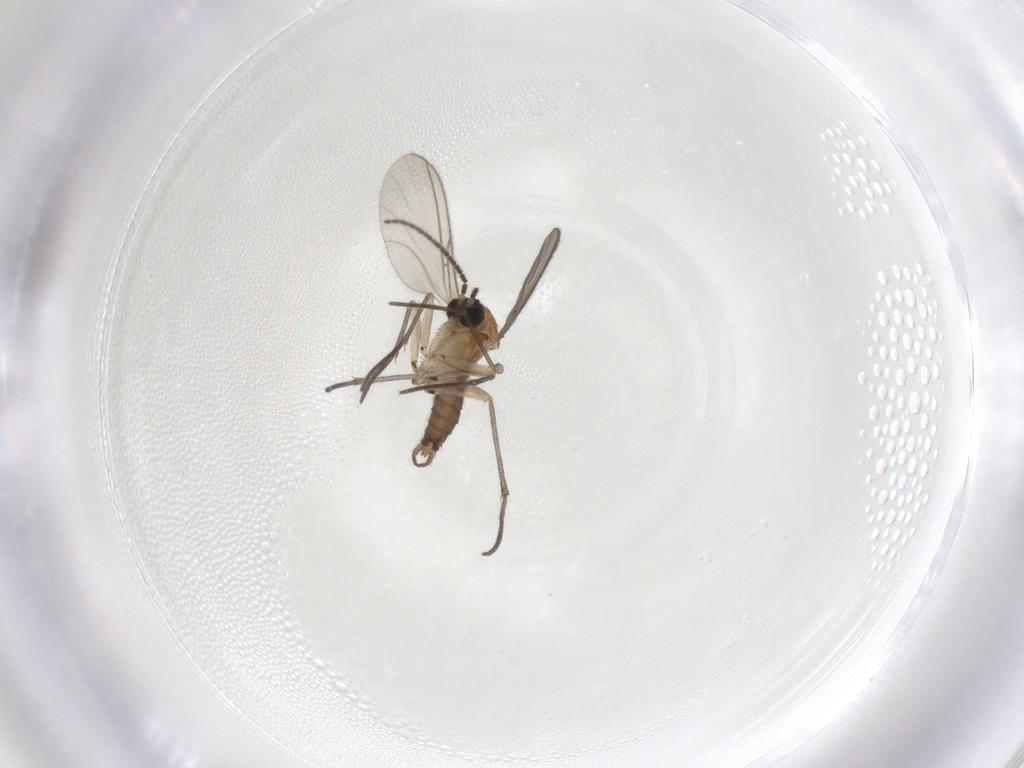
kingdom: Animalia
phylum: Arthropoda
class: Insecta
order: Diptera
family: Sciaridae
